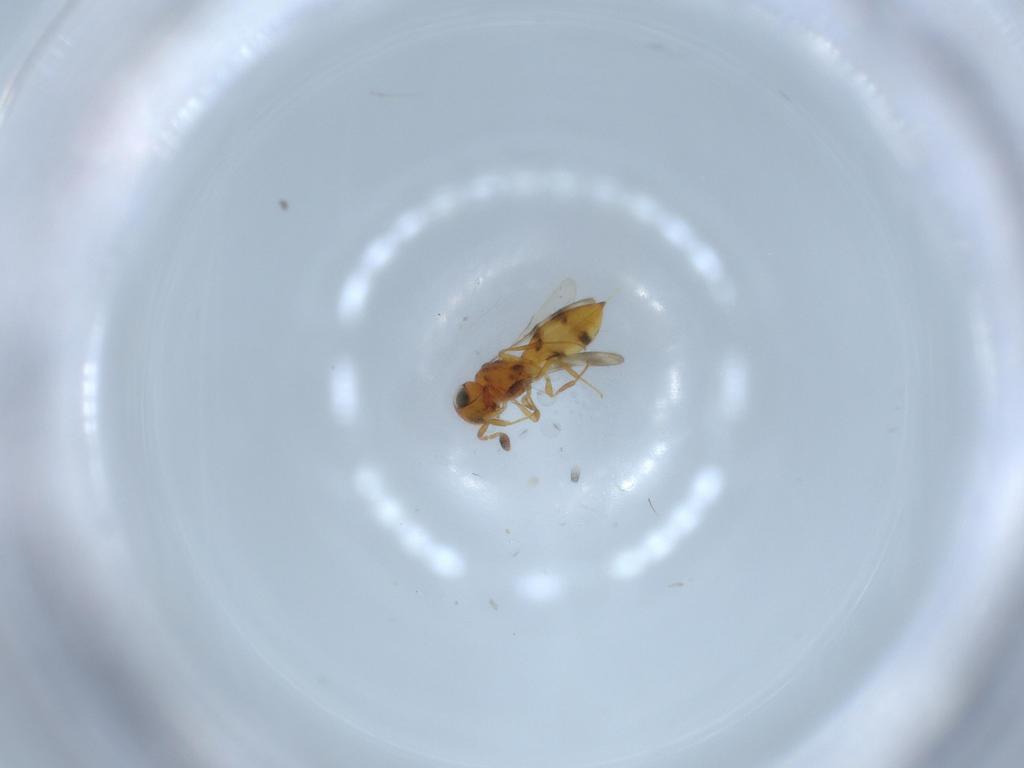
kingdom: Animalia
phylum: Arthropoda
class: Insecta
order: Hymenoptera
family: Scelionidae
